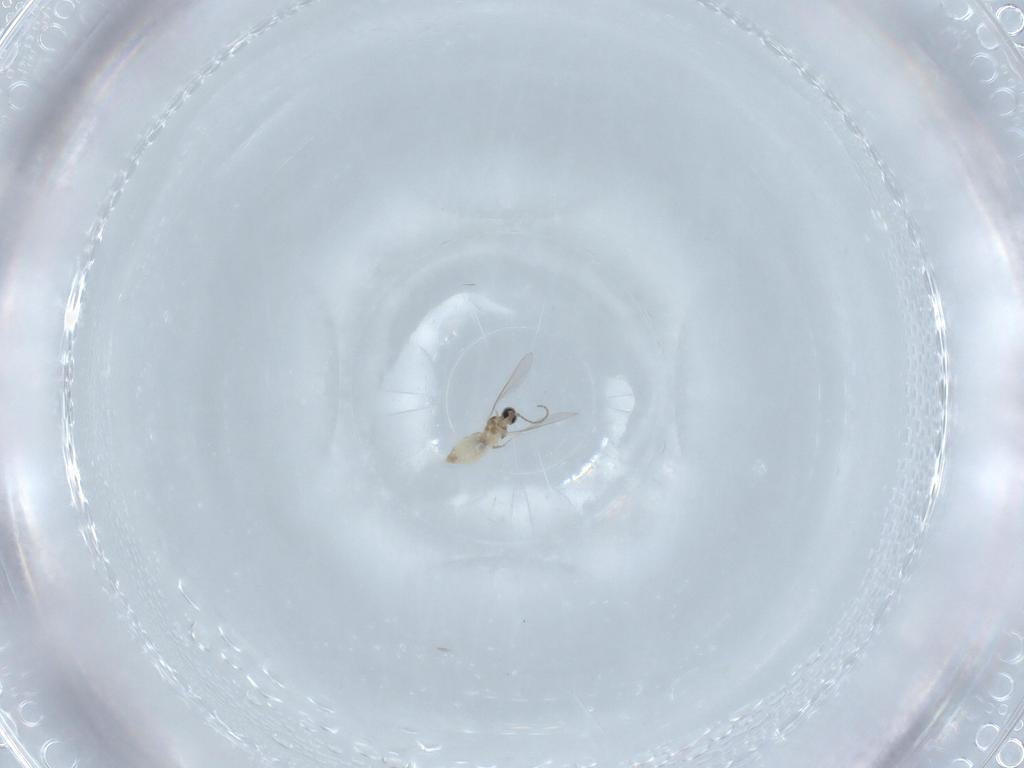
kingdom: Animalia
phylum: Arthropoda
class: Insecta
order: Diptera
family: Cecidomyiidae
